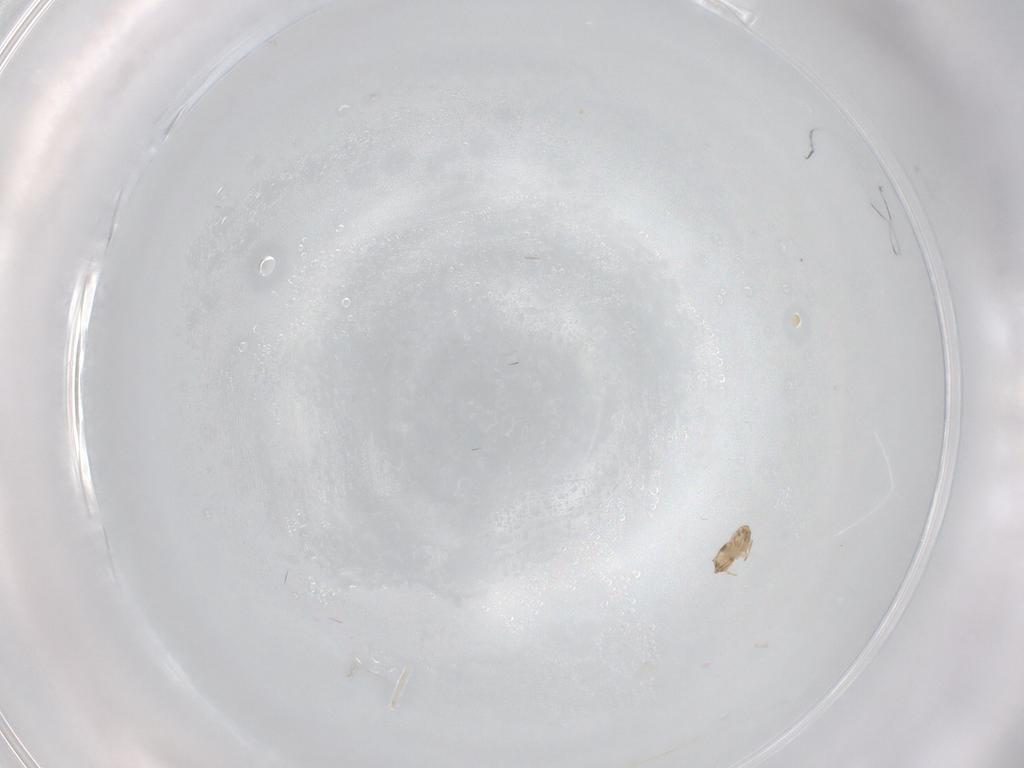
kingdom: Animalia
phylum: Arthropoda
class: Insecta
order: Hymenoptera
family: Trichogrammatidae
